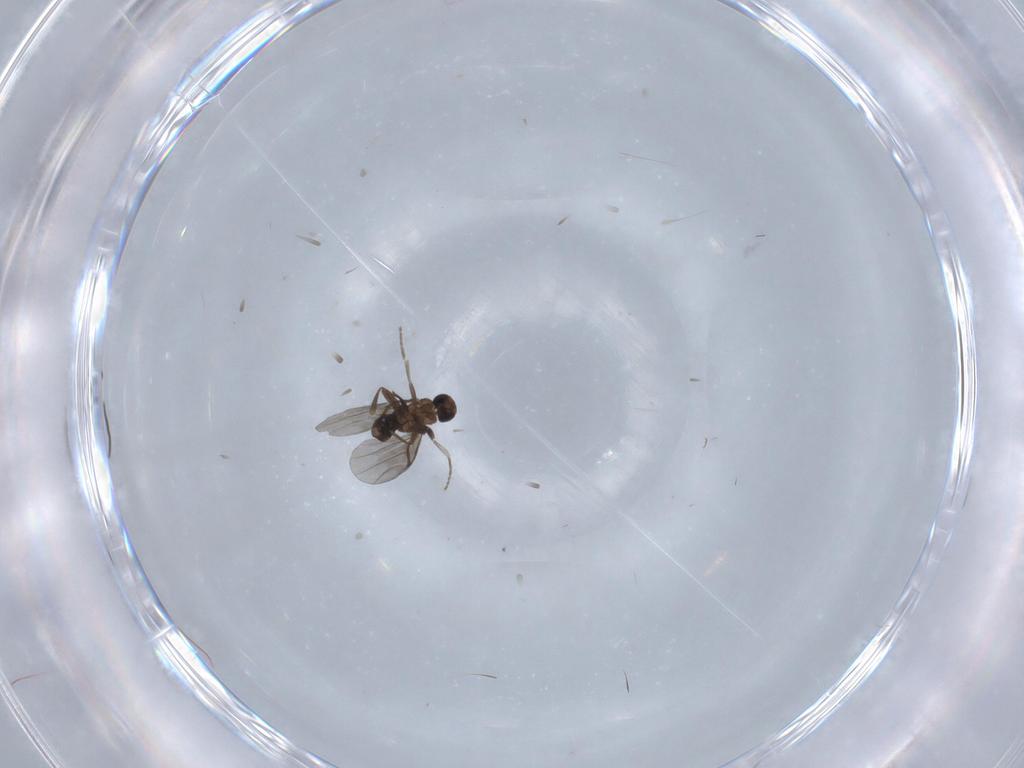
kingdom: Animalia
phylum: Arthropoda
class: Insecta
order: Diptera
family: Phoridae
